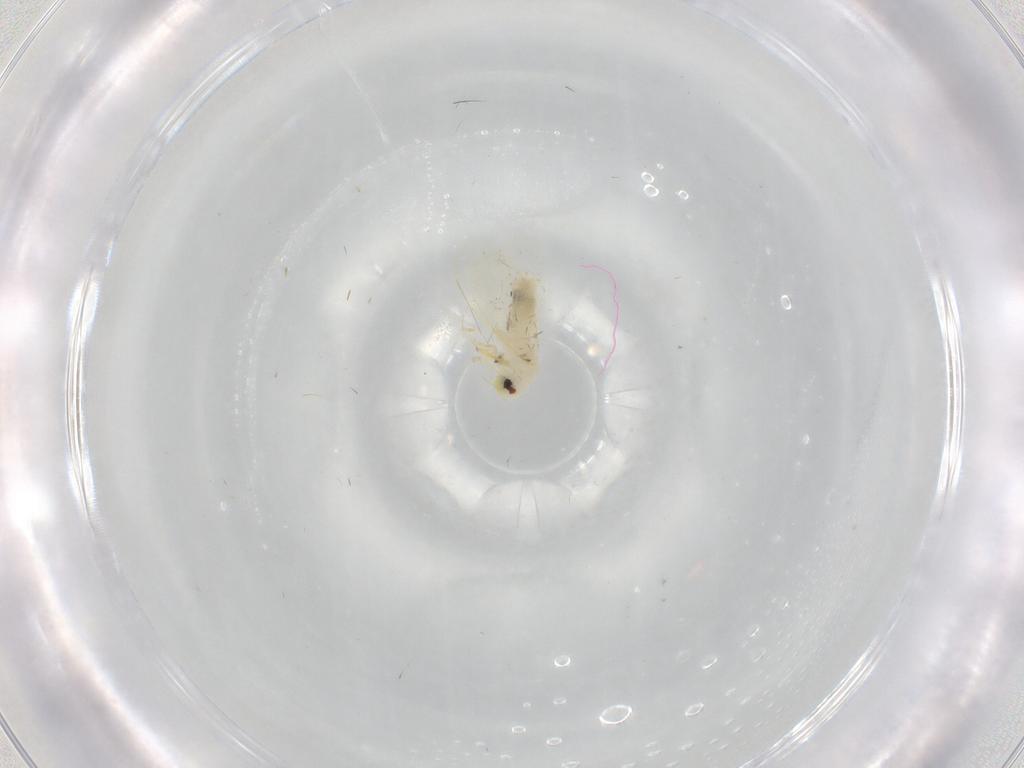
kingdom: Animalia
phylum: Arthropoda
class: Insecta
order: Hemiptera
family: Aleyrodidae
